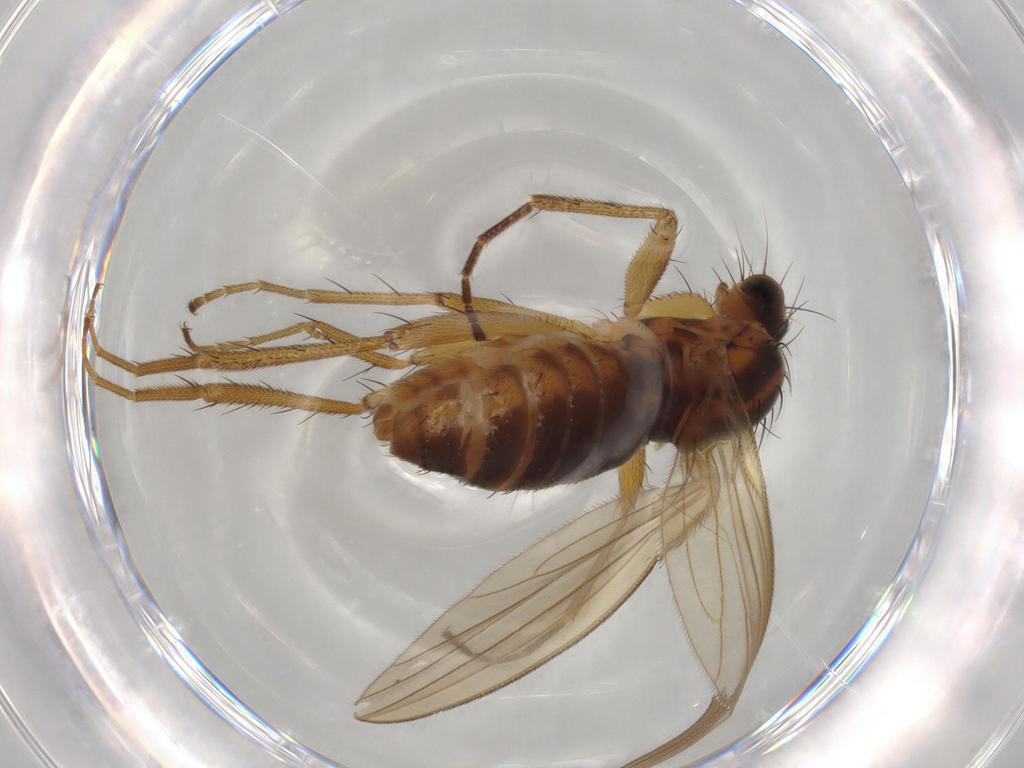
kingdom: Animalia
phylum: Arthropoda
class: Insecta
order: Diptera
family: Lonchopteridae
